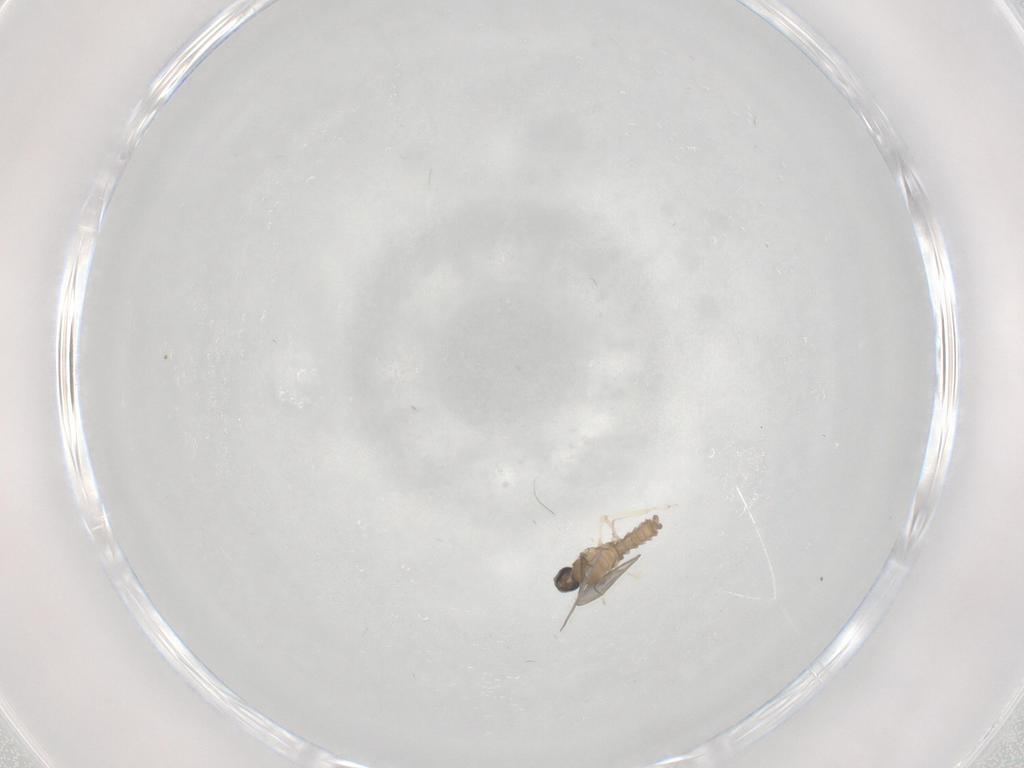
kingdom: Animalia
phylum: Arthropoda
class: Insecta
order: Diptera
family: Cecidomyiidae
